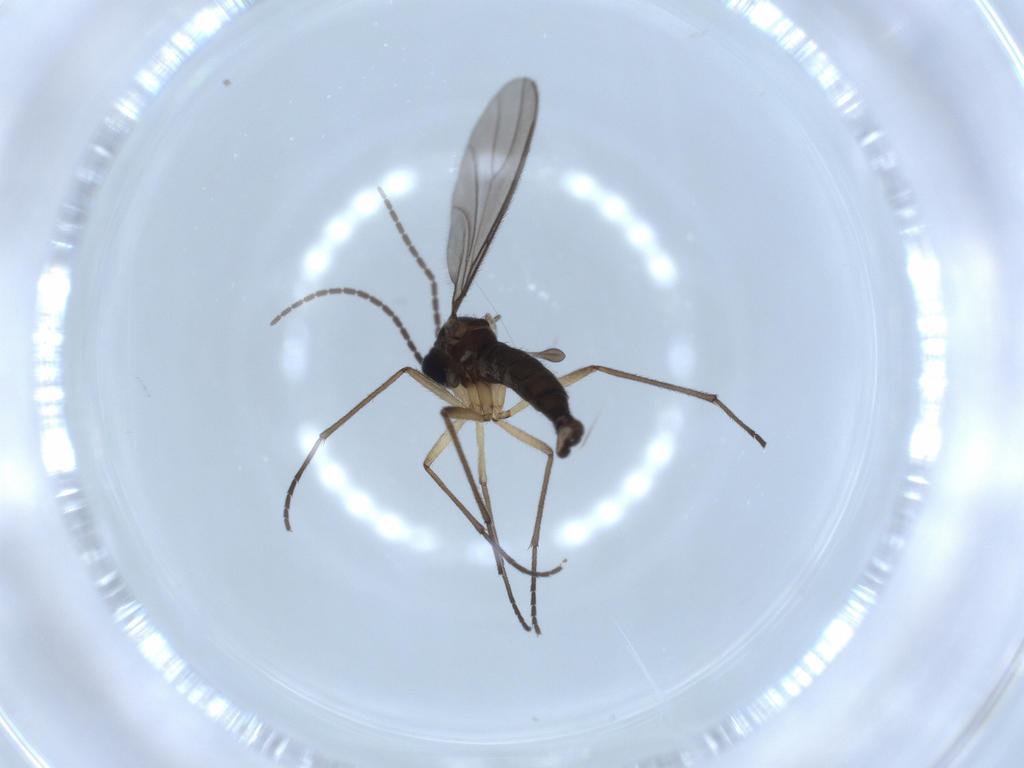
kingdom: Animalia
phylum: Arthropoda
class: Insecta
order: Diptera
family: Sciaridae
